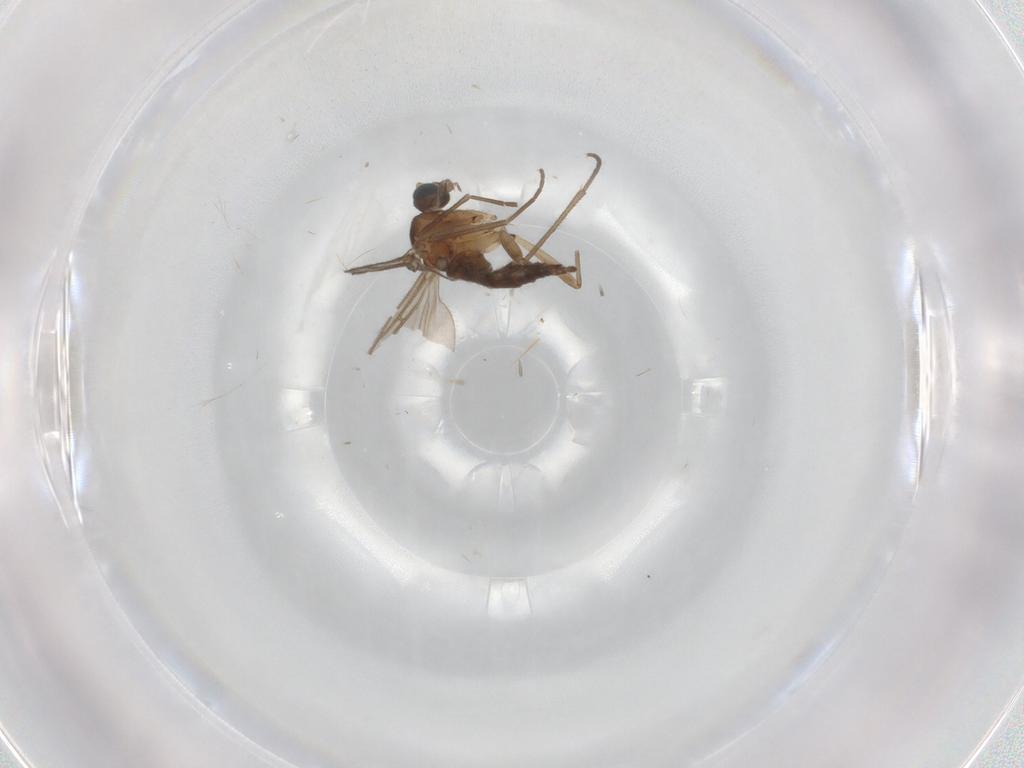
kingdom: Animalia
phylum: Arthropoda
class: Insecta
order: Diptera
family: Sciaridae
